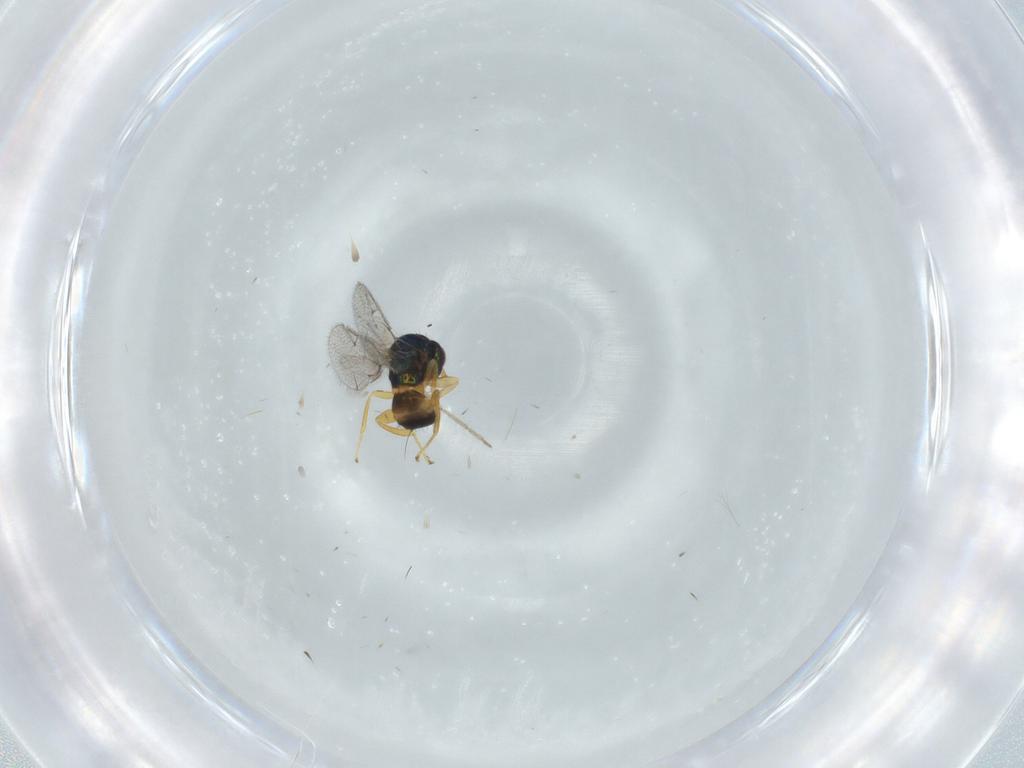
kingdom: Animalia
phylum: Arthropoda
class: Insecta
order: Hymenoptera
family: Torymidae
